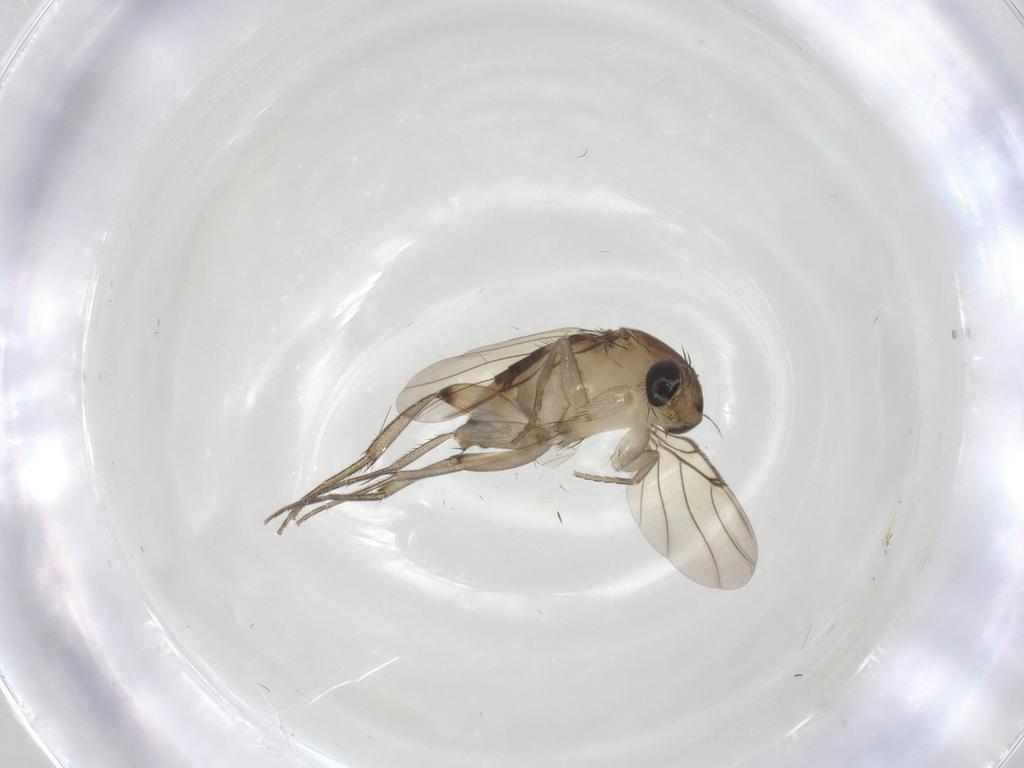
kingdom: Animalia
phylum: Arthropoda
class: Insecta
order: Diptera
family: Phoridae
